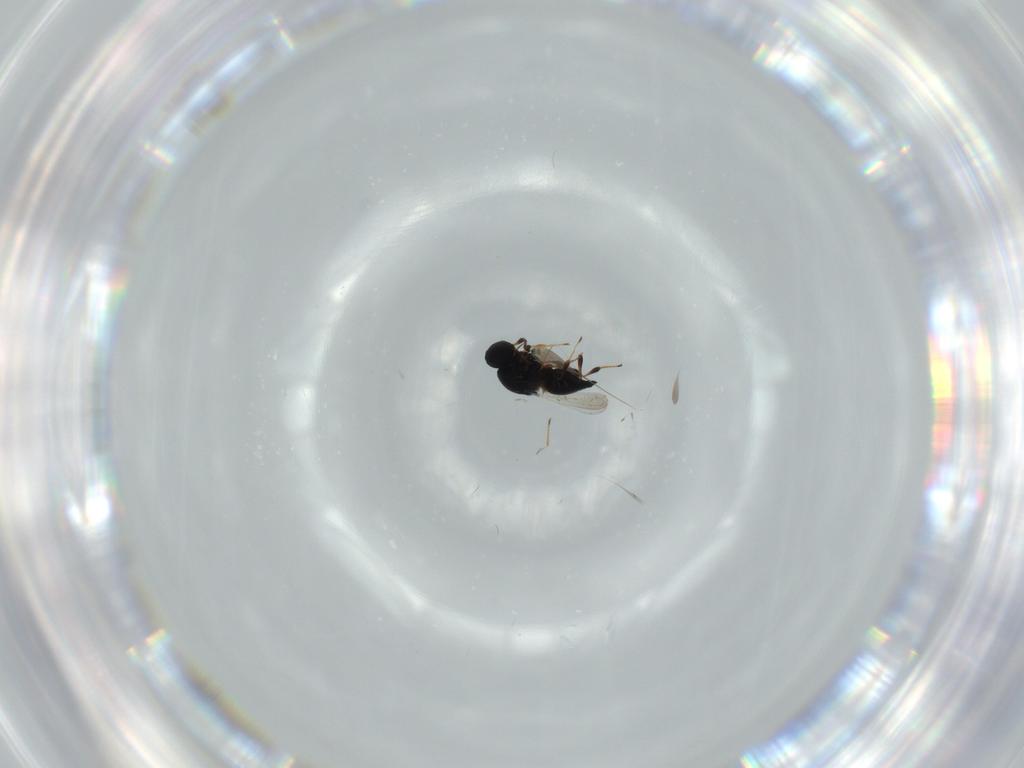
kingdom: Animalia
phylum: Arthropoda
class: Insecta
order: Hymenoptera
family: Platygastridae
